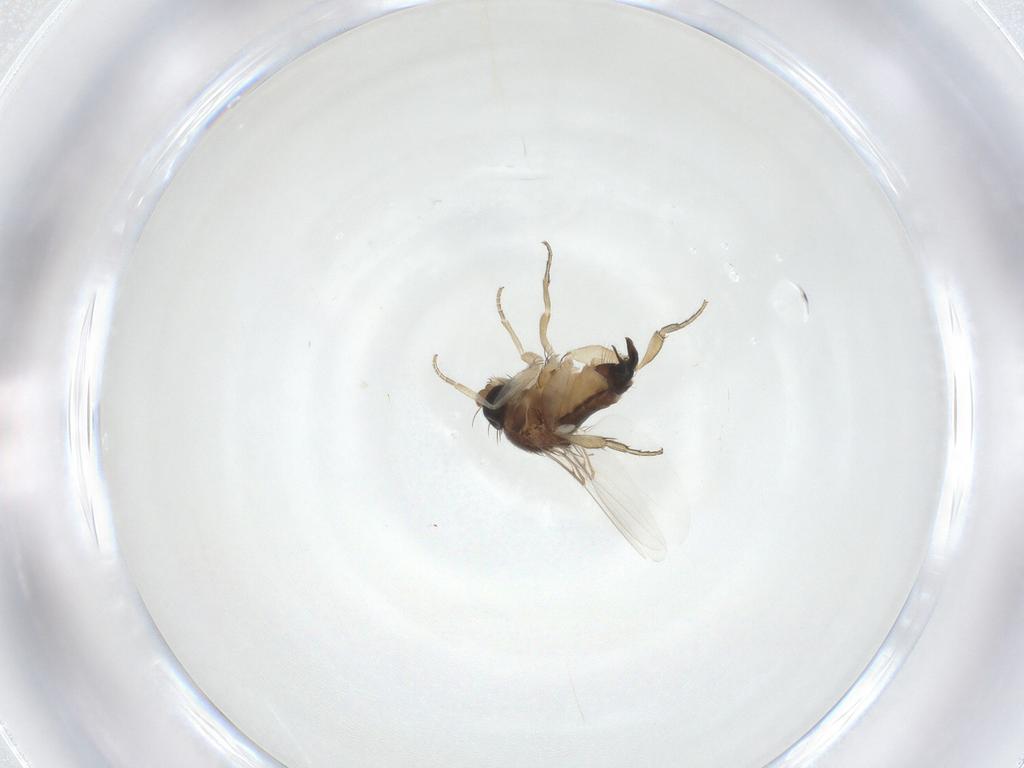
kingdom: Animalia
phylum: Arthropoda
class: Insecta
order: Diptera
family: Phoridae
